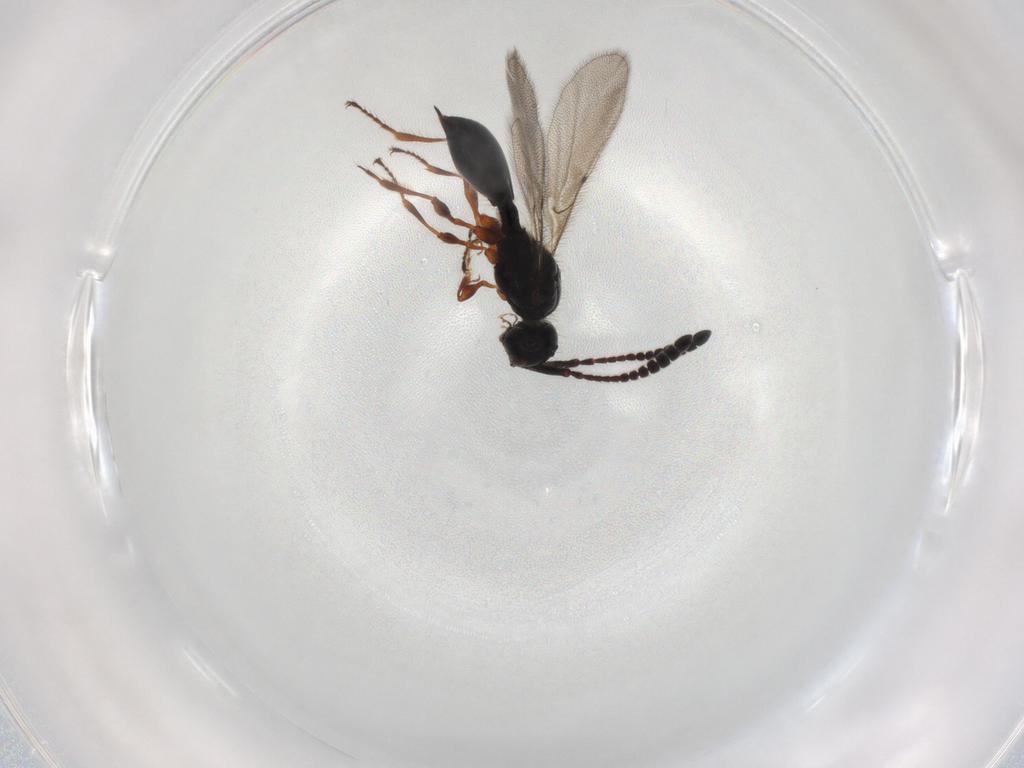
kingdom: Animalia
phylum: Arthropoda
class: Insecta
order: Hymenoptera
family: Diapriidae
